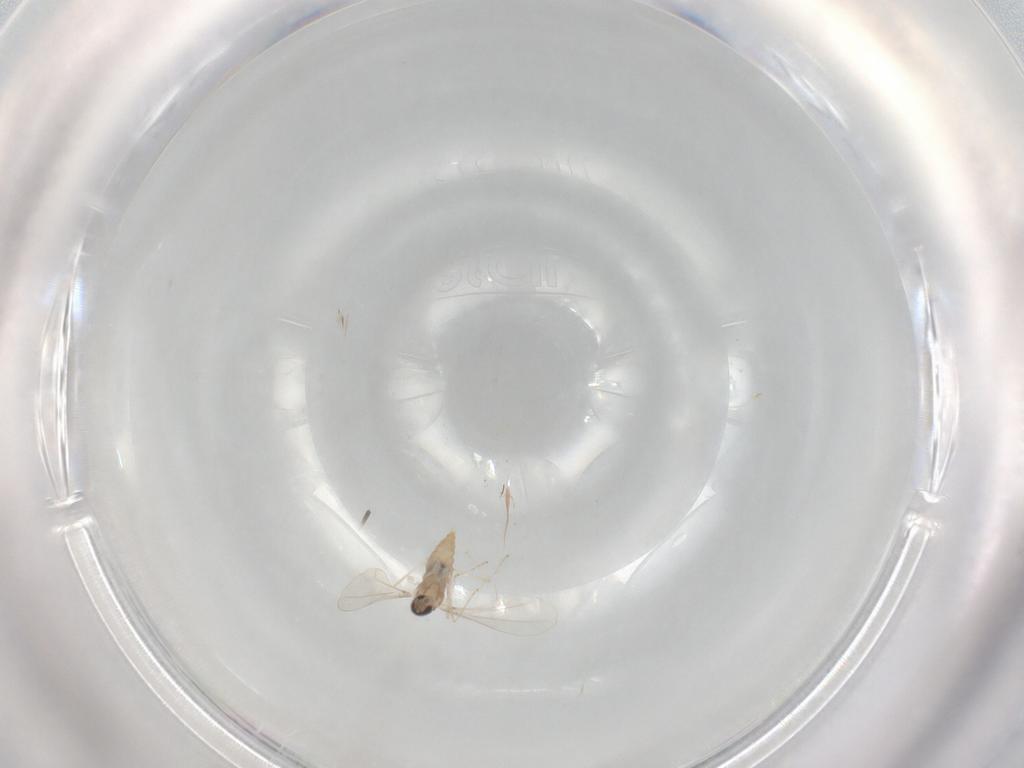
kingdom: Animalia
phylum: Arthropoda
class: Insecta
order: Diptera
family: Cecidomyiidae
